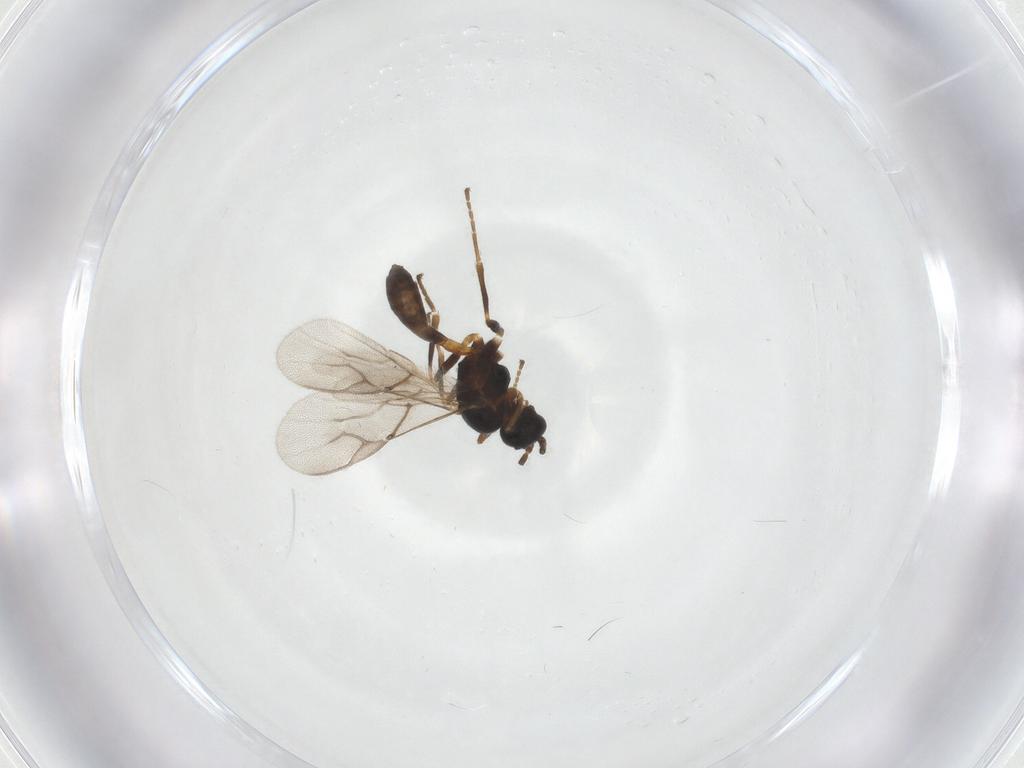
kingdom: Animalia
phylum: Arthropoda
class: Insecta
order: Hymenoptera
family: Braconidae
